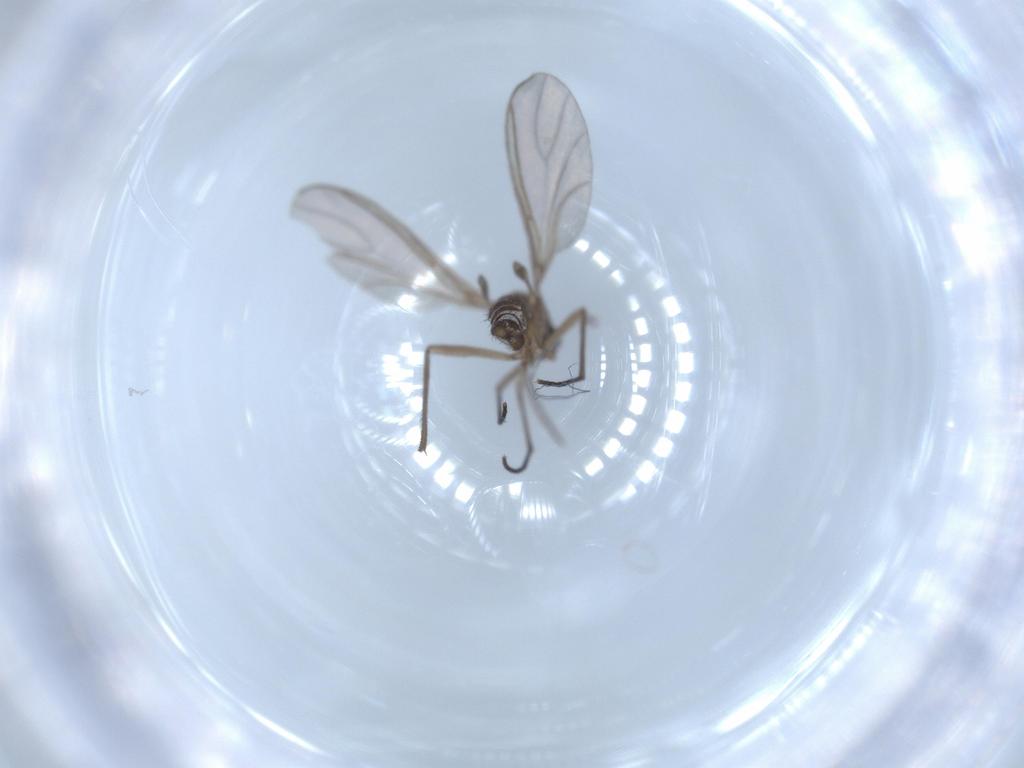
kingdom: Animalia
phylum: Arthropoda
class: Insecta
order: Diptera
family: Sciaridae
